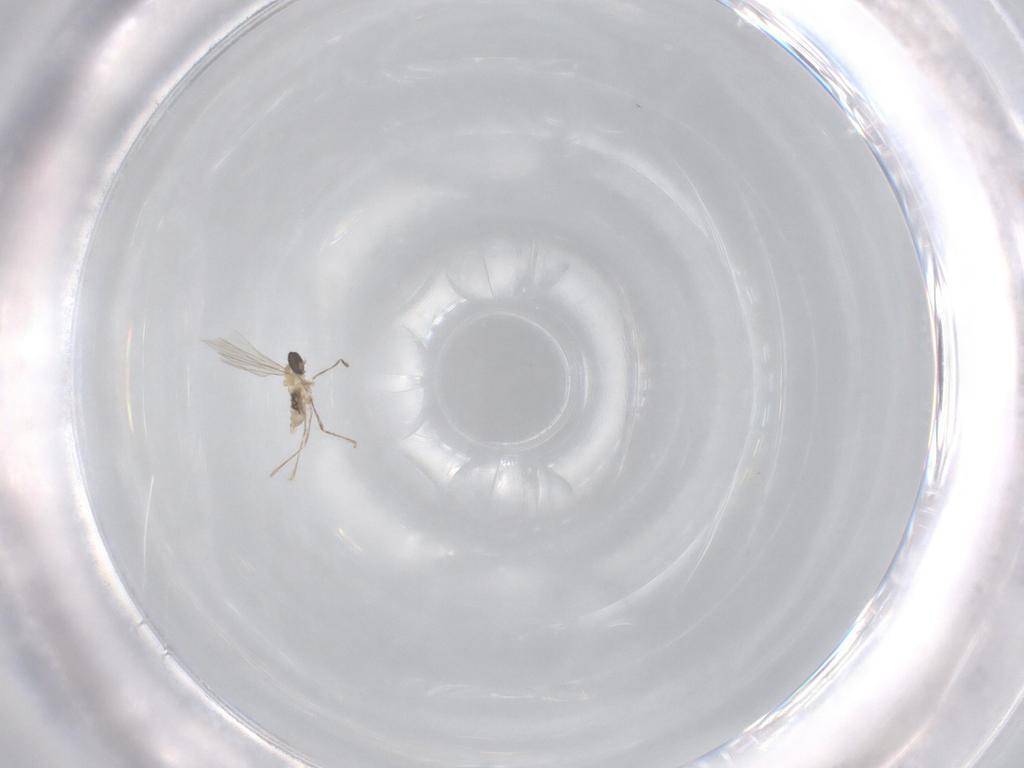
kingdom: Animalia
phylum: Arthropoda
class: Insecta
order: Diptera
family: Cecidomyiidae
